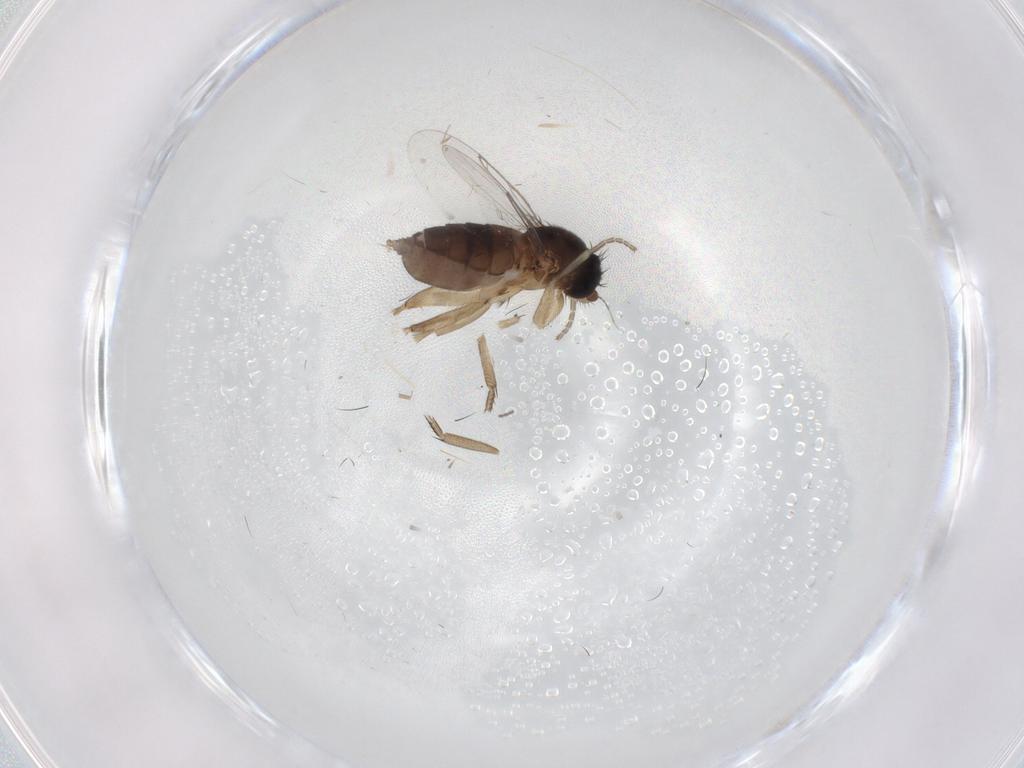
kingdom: Animalia
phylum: Arthropoda
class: Insecta
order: Diptera
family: Phoridae
